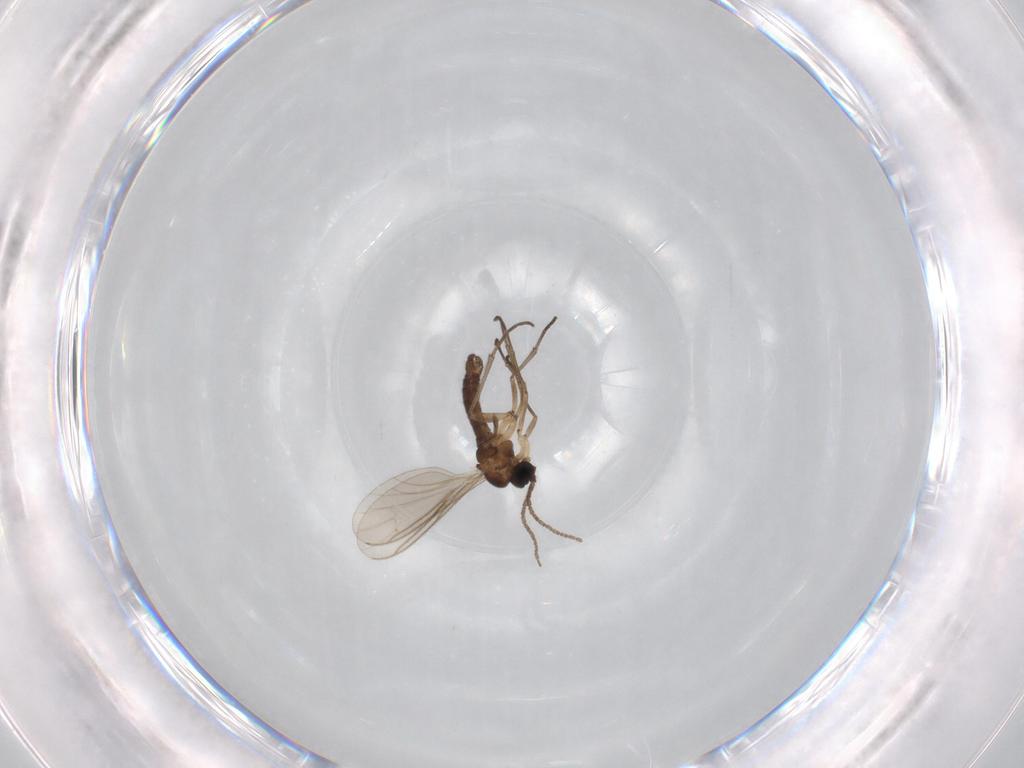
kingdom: Animalia
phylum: Arthropoda
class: Insecta
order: Diptera
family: Sciaridae
